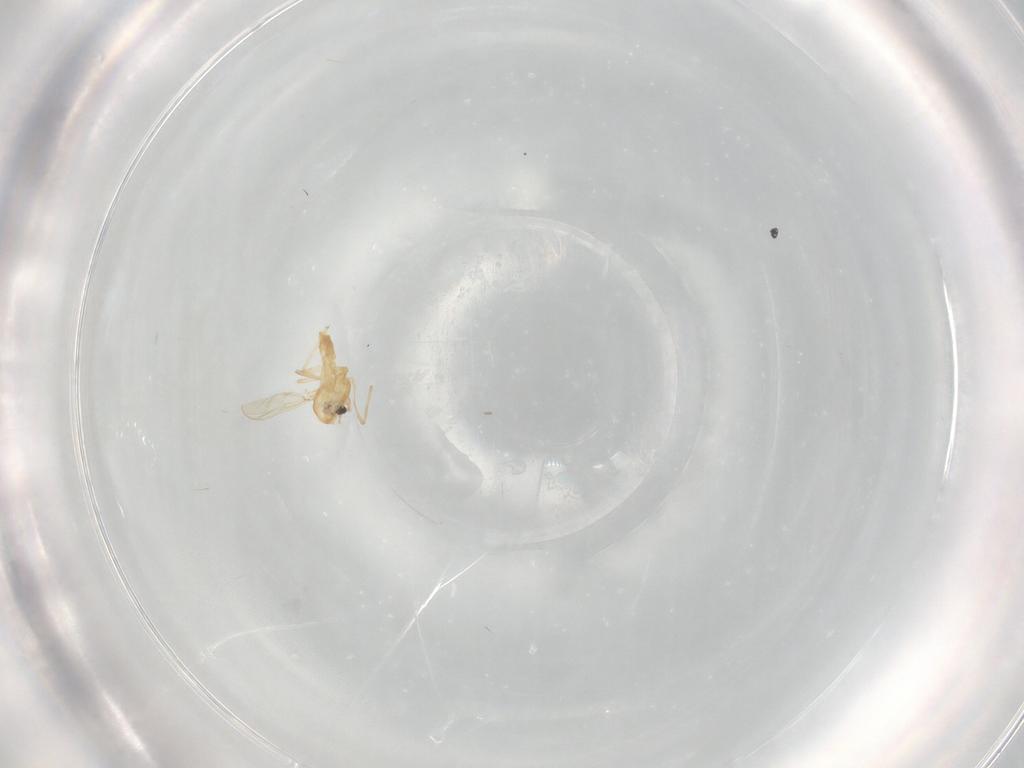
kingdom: Animalia
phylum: Arthropoda
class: Insecta
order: Diptera
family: Chironomidae
